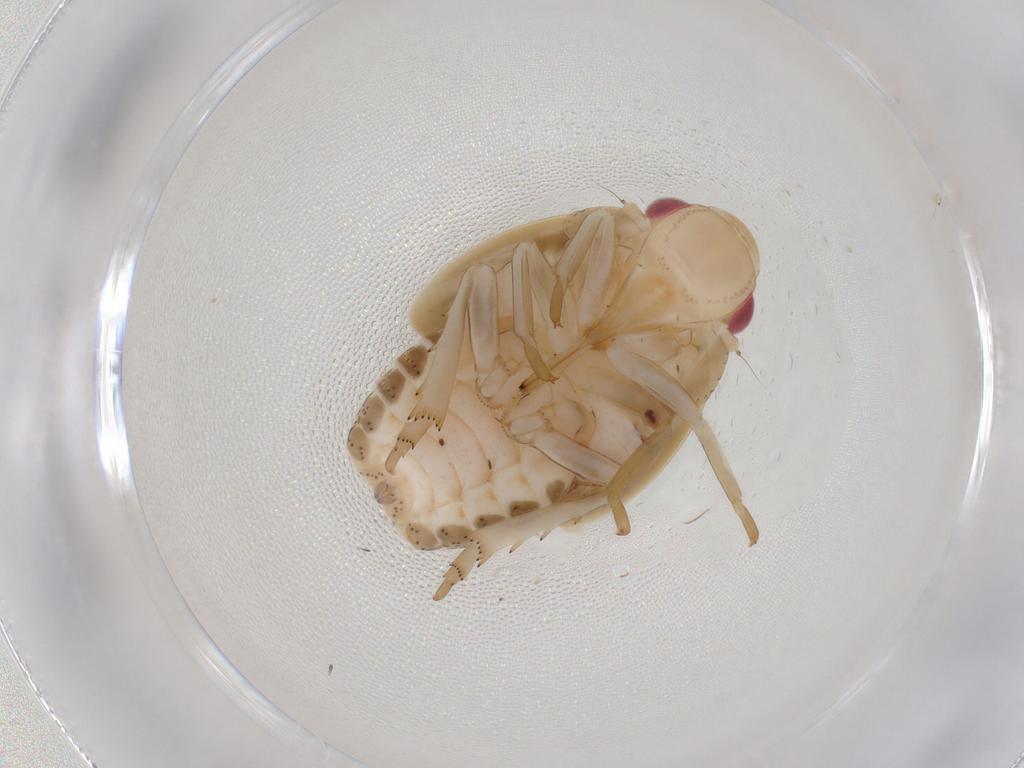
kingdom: Animalia
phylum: Arthropoda
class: Insecta
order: Hemiptera
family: Flatidae
